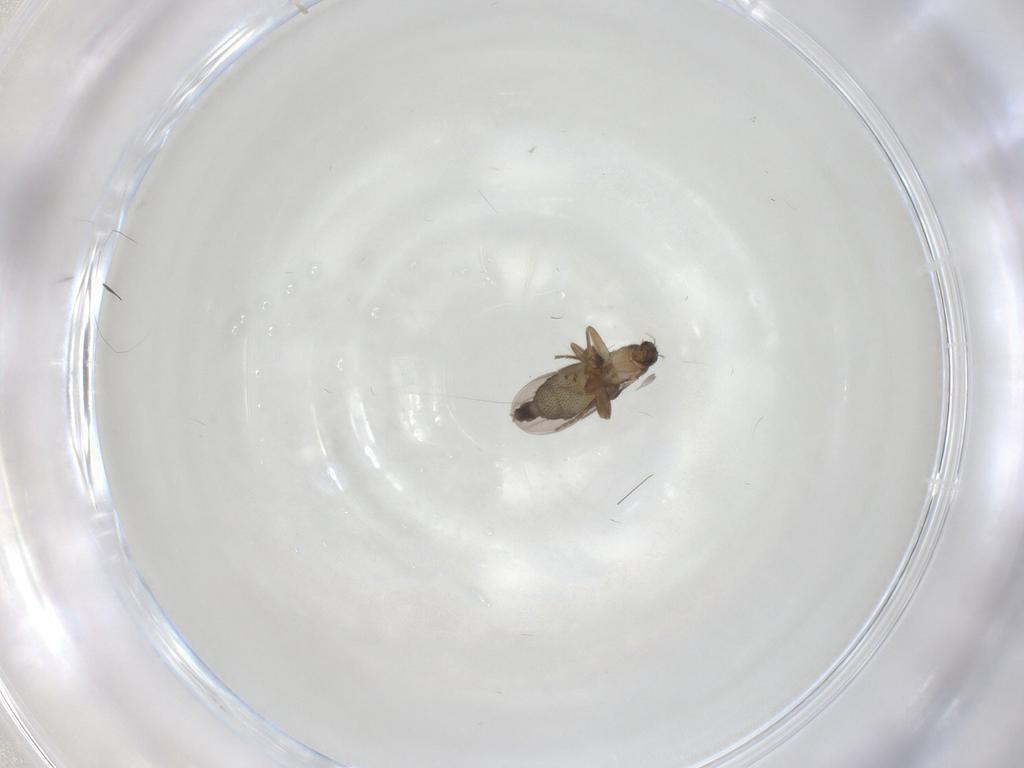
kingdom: Animalia
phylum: Arthropoda
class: Insecta
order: Diptera
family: Phoridae
